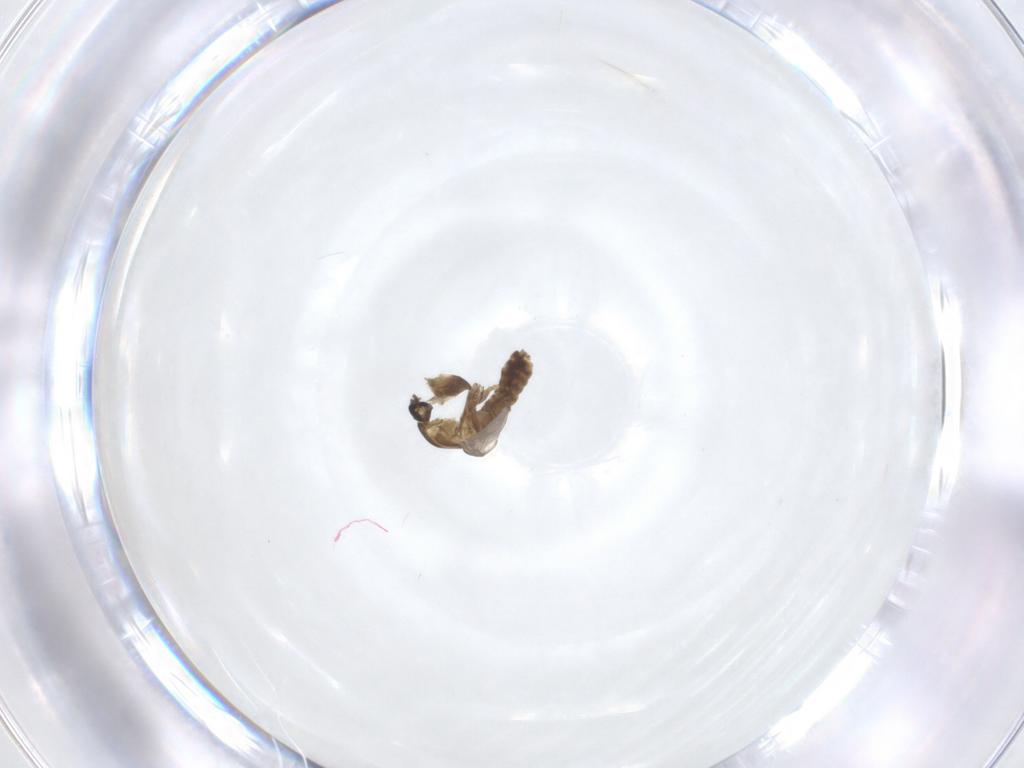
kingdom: Animalia
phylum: Arthropoda
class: Insecta
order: Diptera
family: Chironomidae
